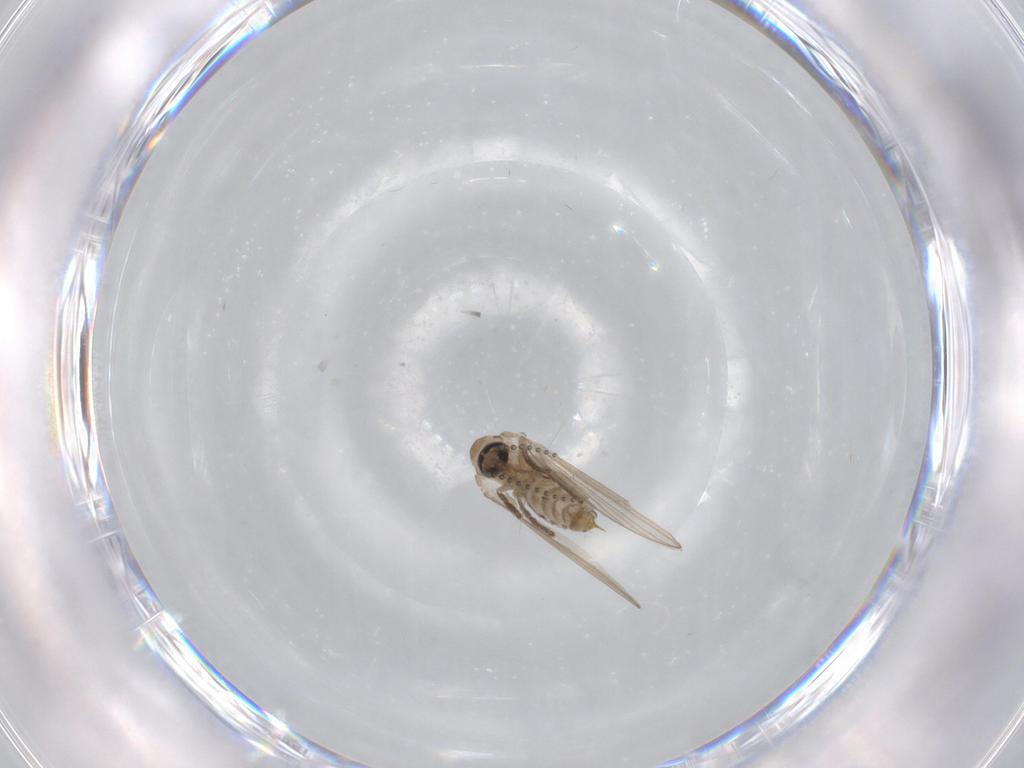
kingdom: Animalia
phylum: Arthropoda
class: Insecta
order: Diptera
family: Psychodidae
